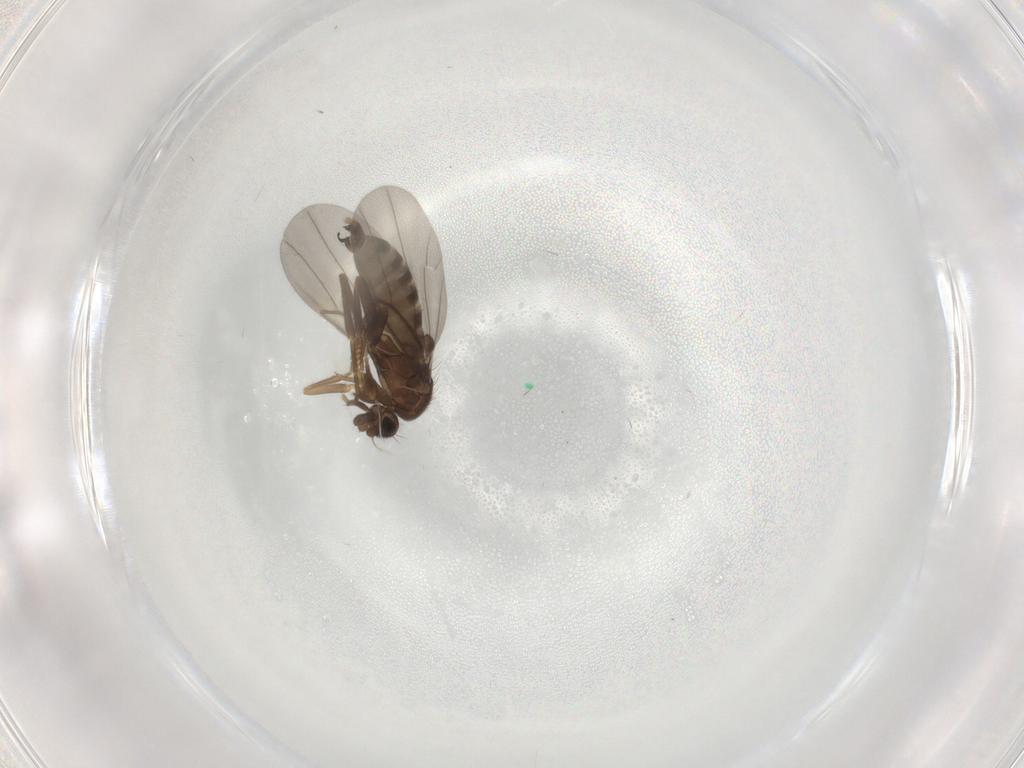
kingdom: Animalia
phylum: Arthropoda
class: Insecta
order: Diptera
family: Phoridae
